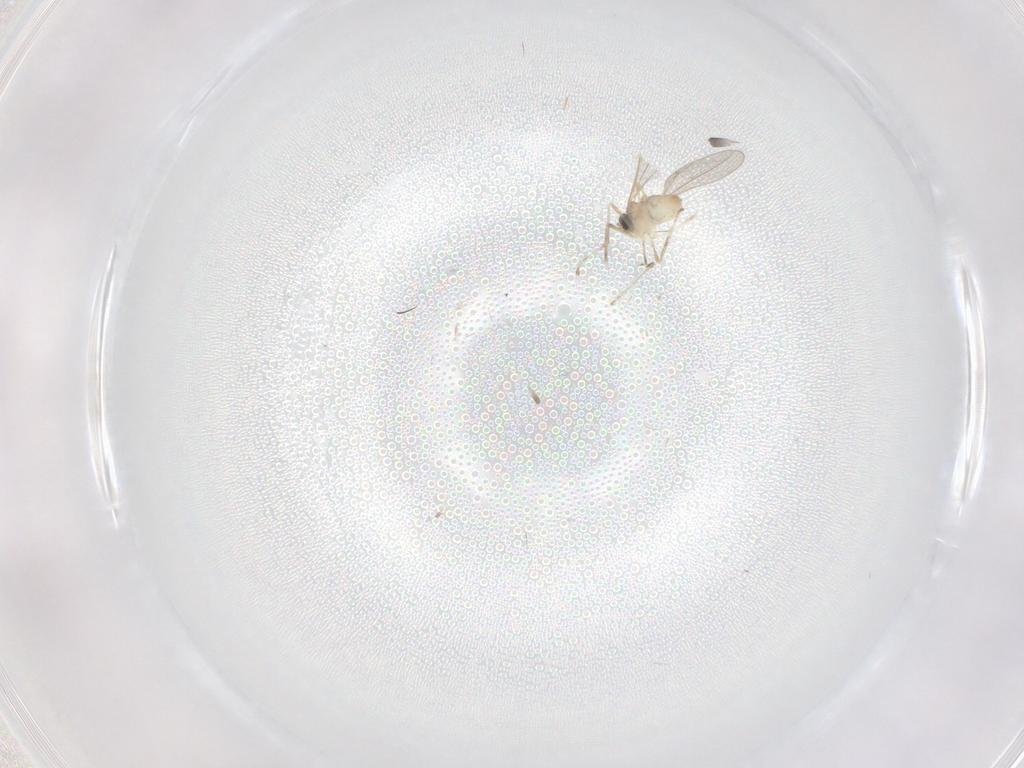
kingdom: Animalia
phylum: Arthropoda
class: Insecta
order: Diptera
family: Cecidomyiidae
